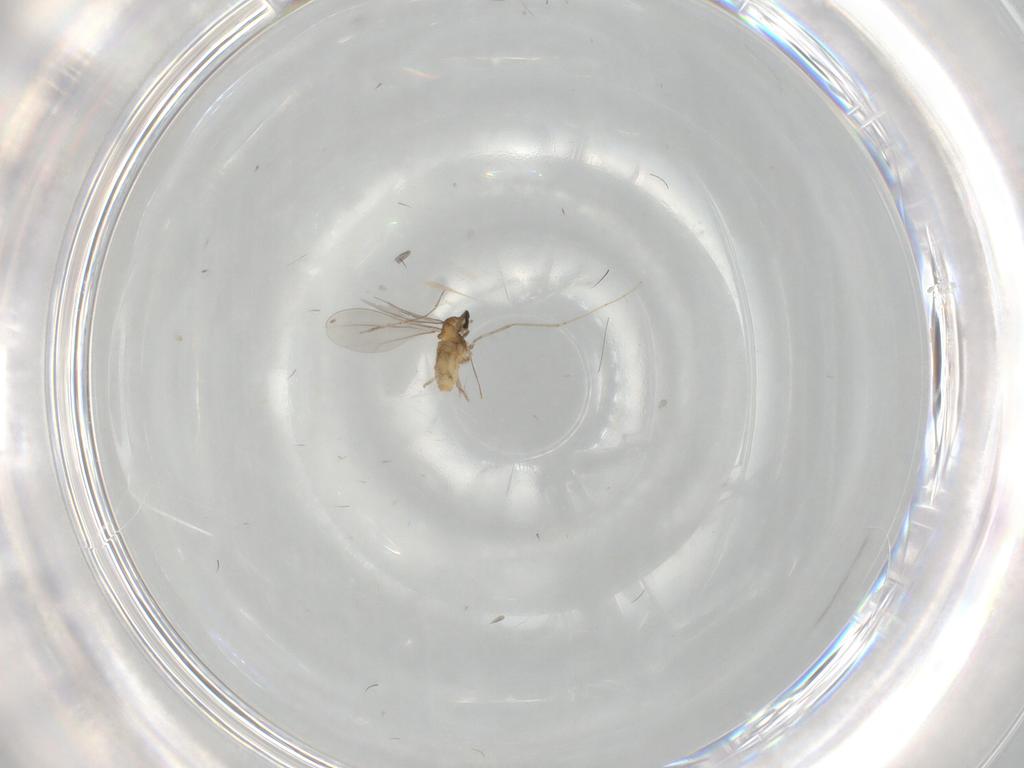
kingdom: Animalia
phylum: Arthropoda
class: Insecta
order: Diptera
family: Cecidomyiidae
